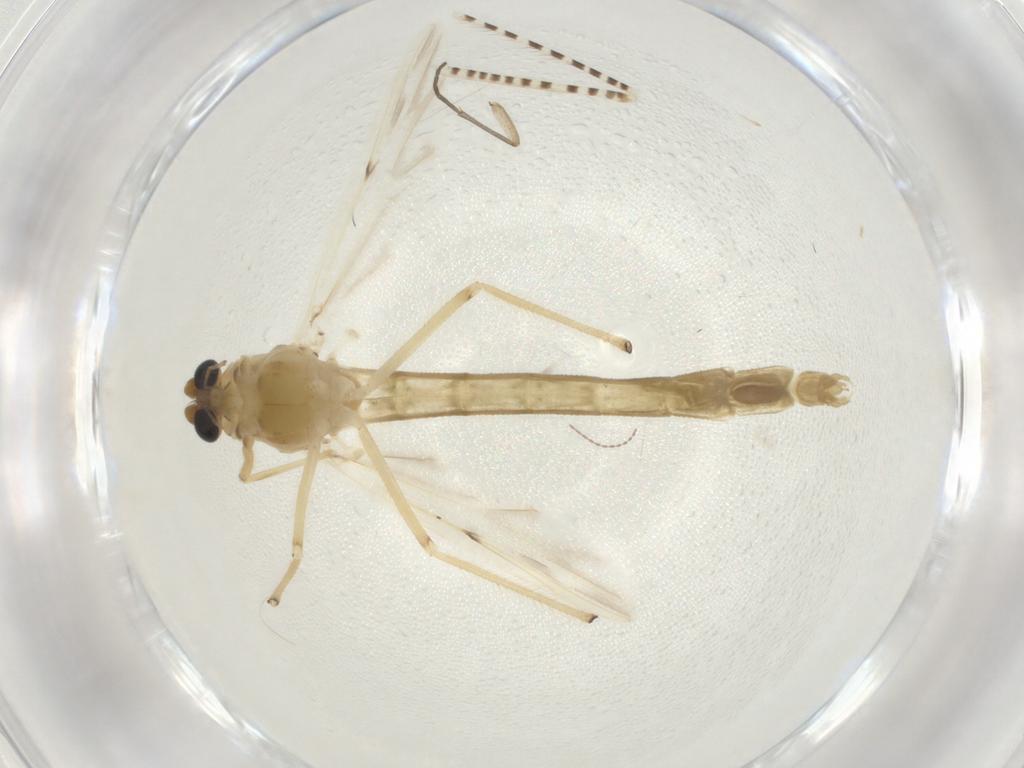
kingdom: Animalia
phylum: Arthropoda
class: Insecta
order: Diptera
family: Chironomidae
